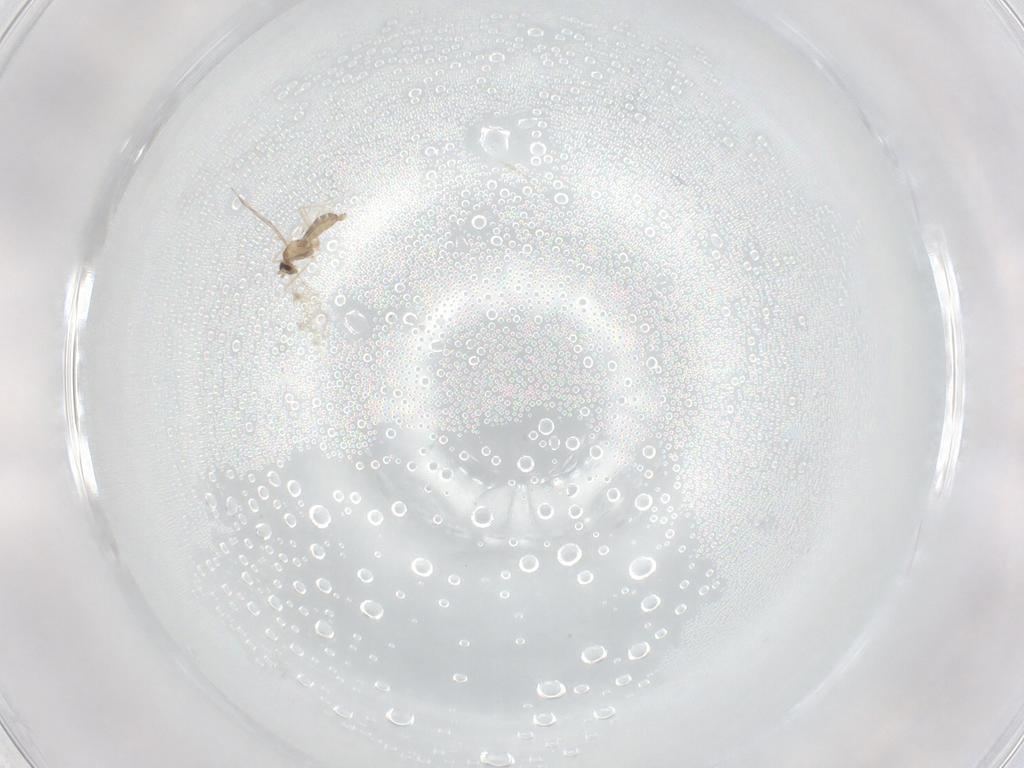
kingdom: Animalia
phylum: Arthropoda
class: Insecta
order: Diptera
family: Cecidomyiidae
